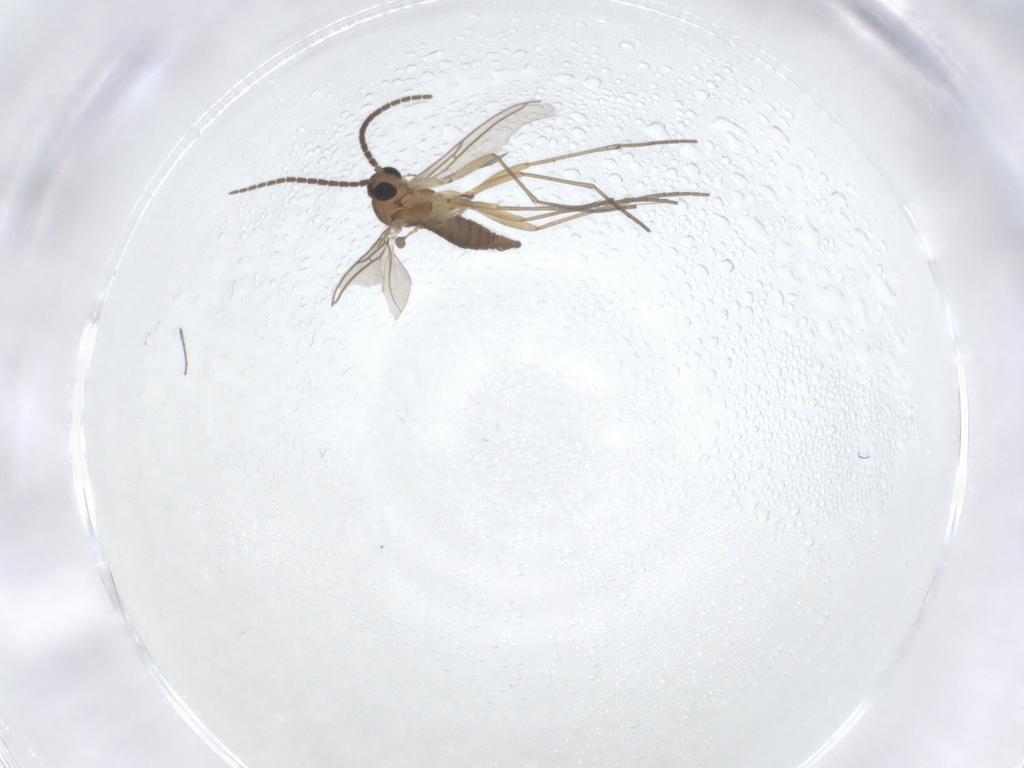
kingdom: Animalia
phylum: Arthropoda
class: Insecta
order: Diptera
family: Sciaridae
